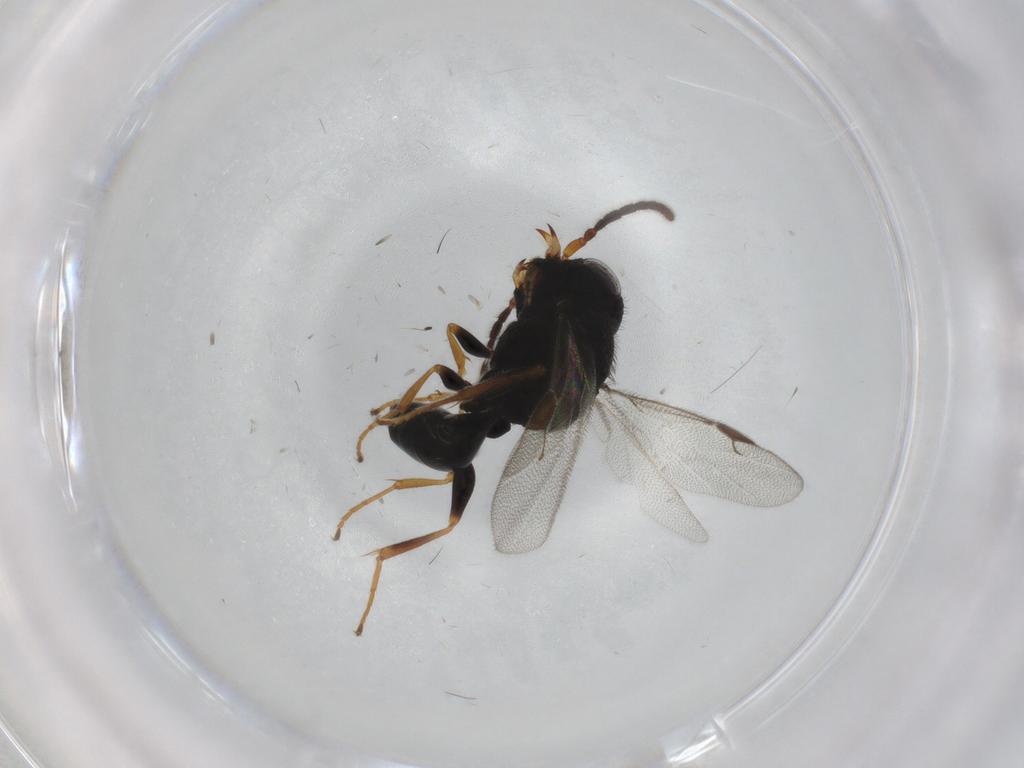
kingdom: Animalia
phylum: Arthropoda
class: Insecta
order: Hymenoptera
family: Dryinidae
